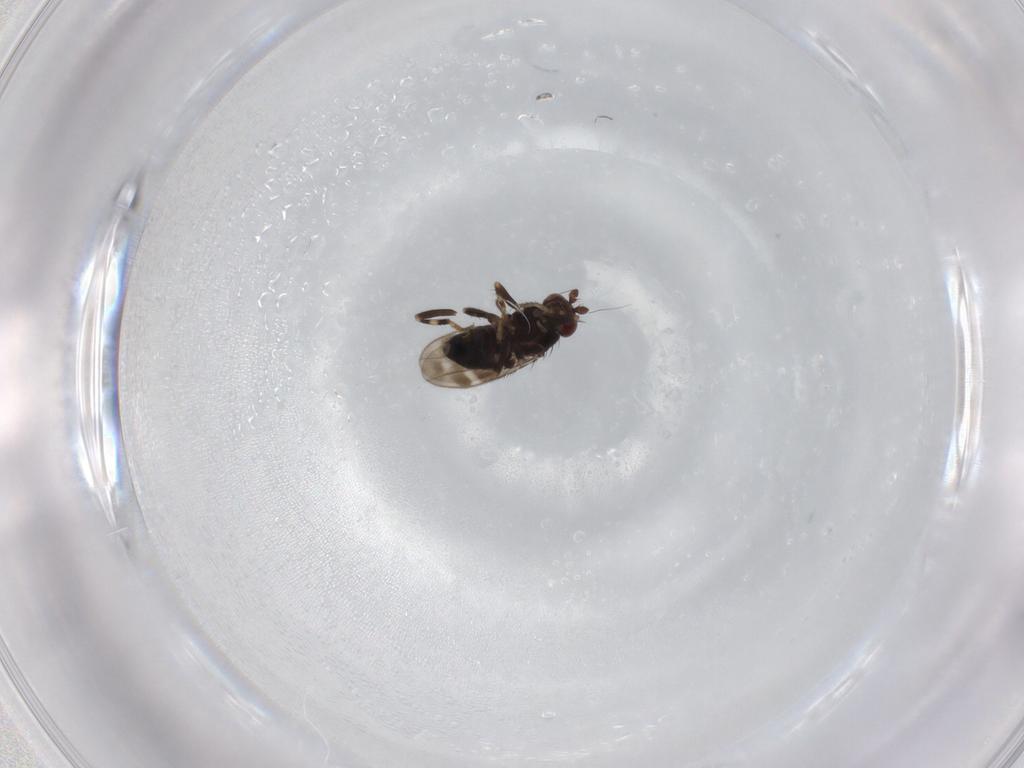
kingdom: Animalia
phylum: Arthropoda
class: Insecta
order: Diptera
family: Sphaeroceridae
